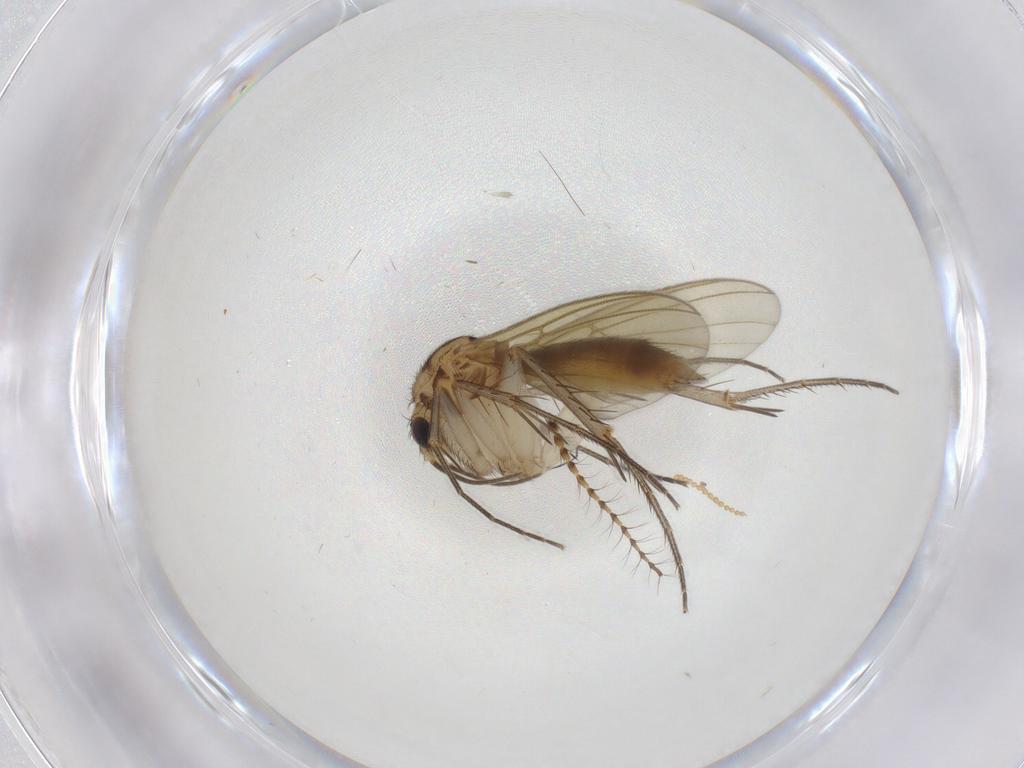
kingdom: Animalia
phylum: Arthropoda
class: Insecta
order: Diptera
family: Mycetophilidae
